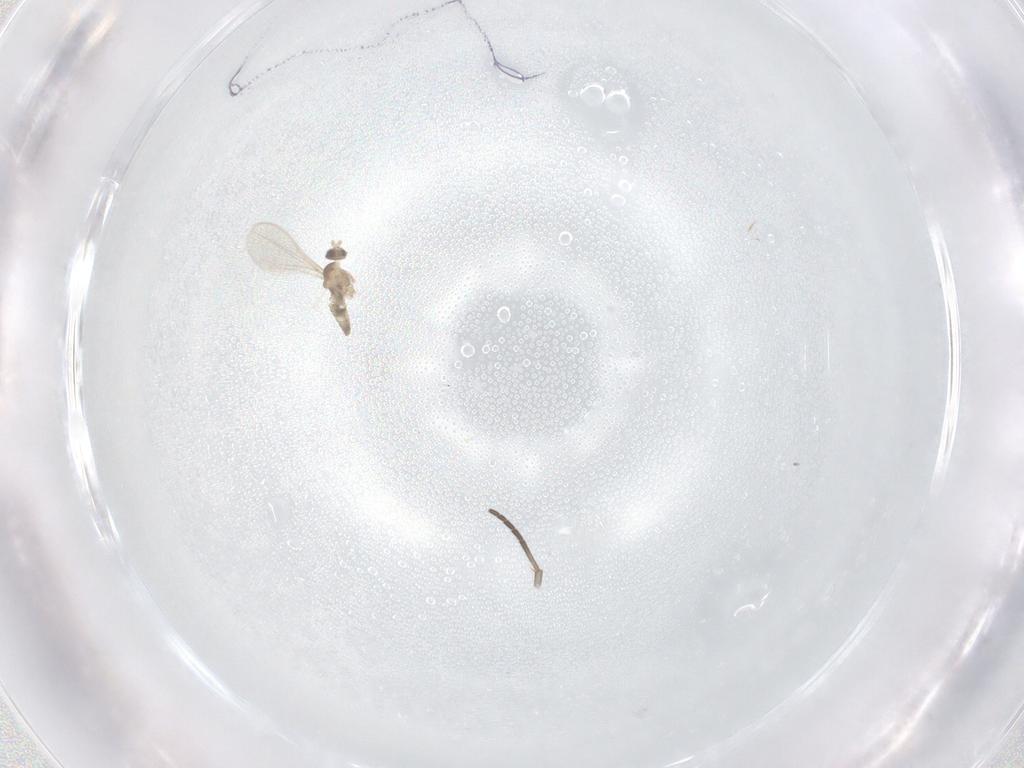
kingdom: Animalia
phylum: Arthropoda
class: Insecta
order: Diptera
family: Cecidomyiidae
